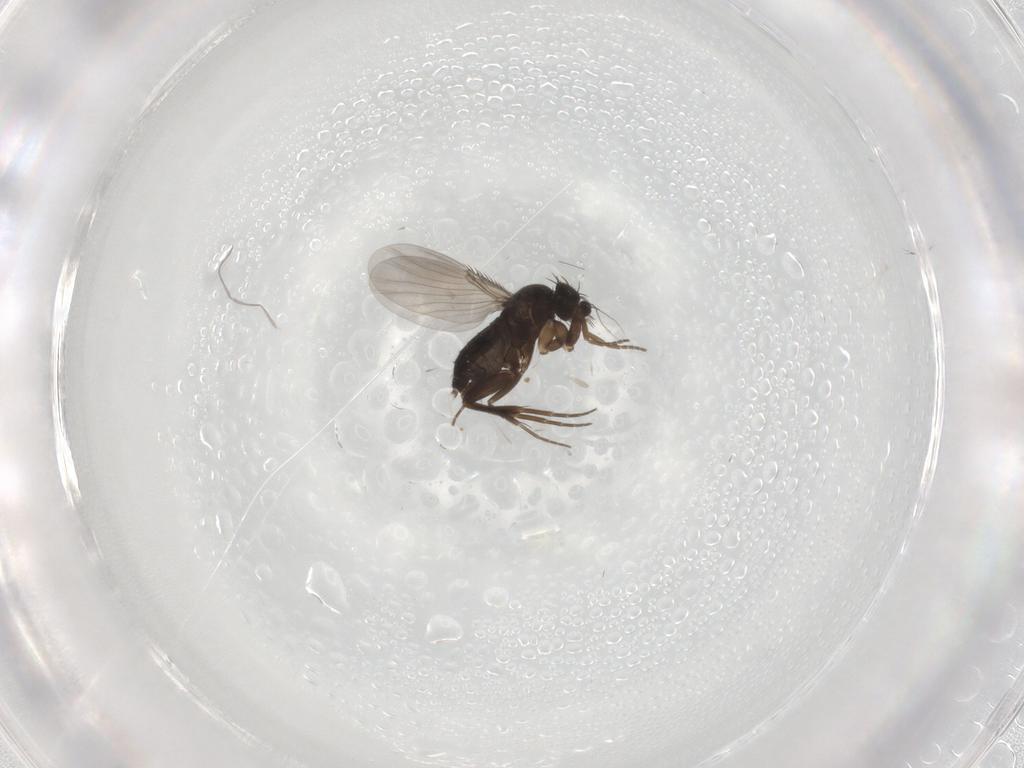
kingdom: Animalia
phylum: Arthropoda
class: Insecta
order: Diptera
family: Phoridae
